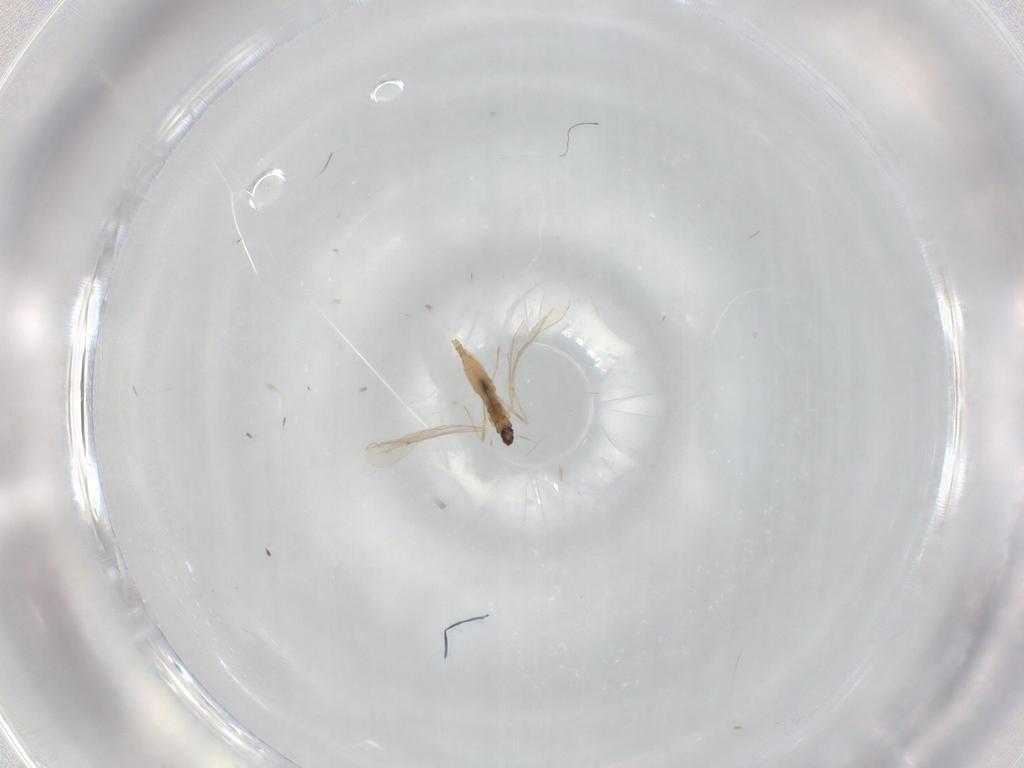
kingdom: Animalia
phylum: Arthropoda
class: Insecta
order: Diptera
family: Cecidomyiidae
